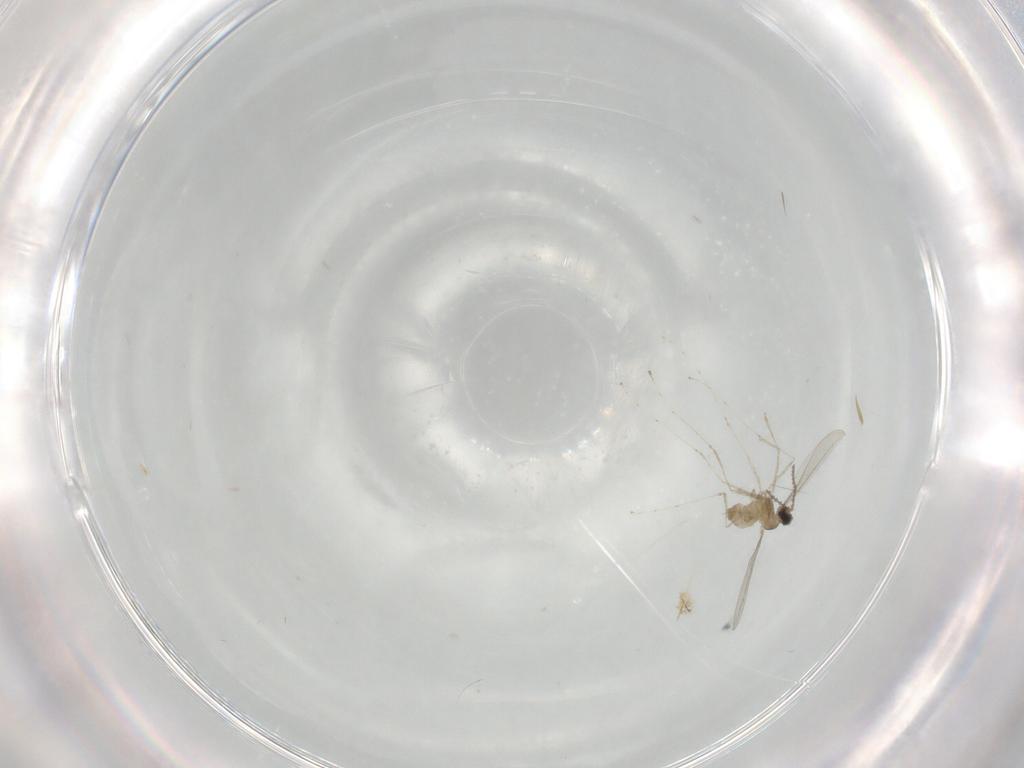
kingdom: Animalia
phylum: Arthropoda
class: Insecta
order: Diptera
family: Cecidomyiidae
